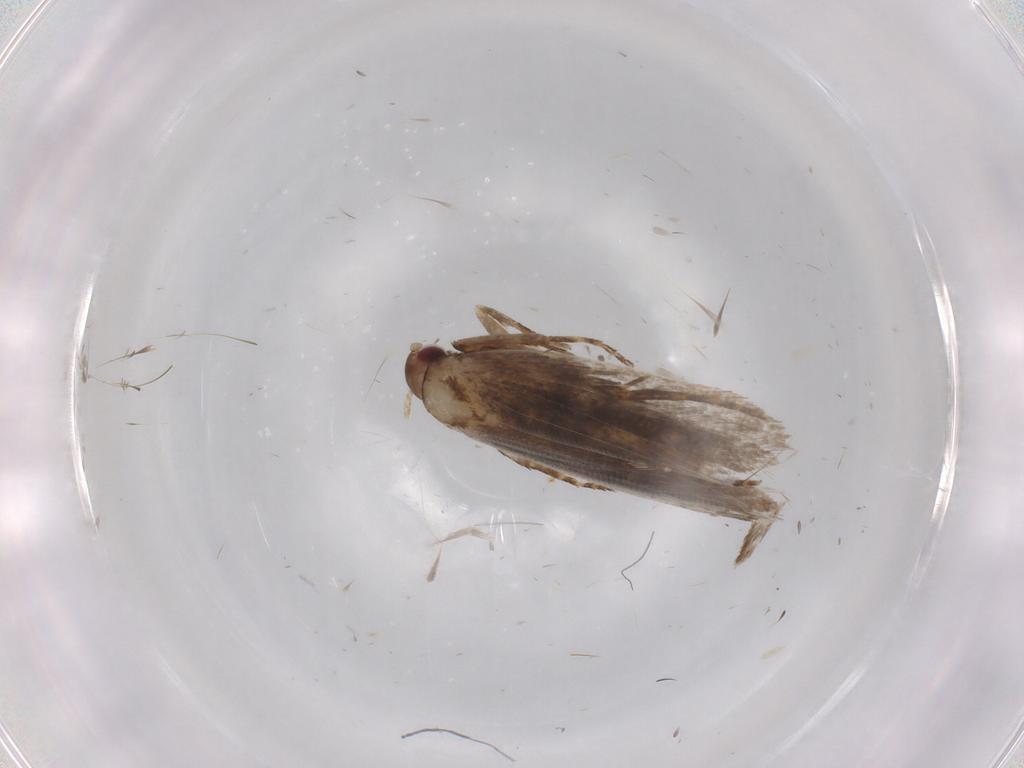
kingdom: Animalia
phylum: Arthropoda
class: Insecta
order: Lepidoptera
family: Gelechiidae
